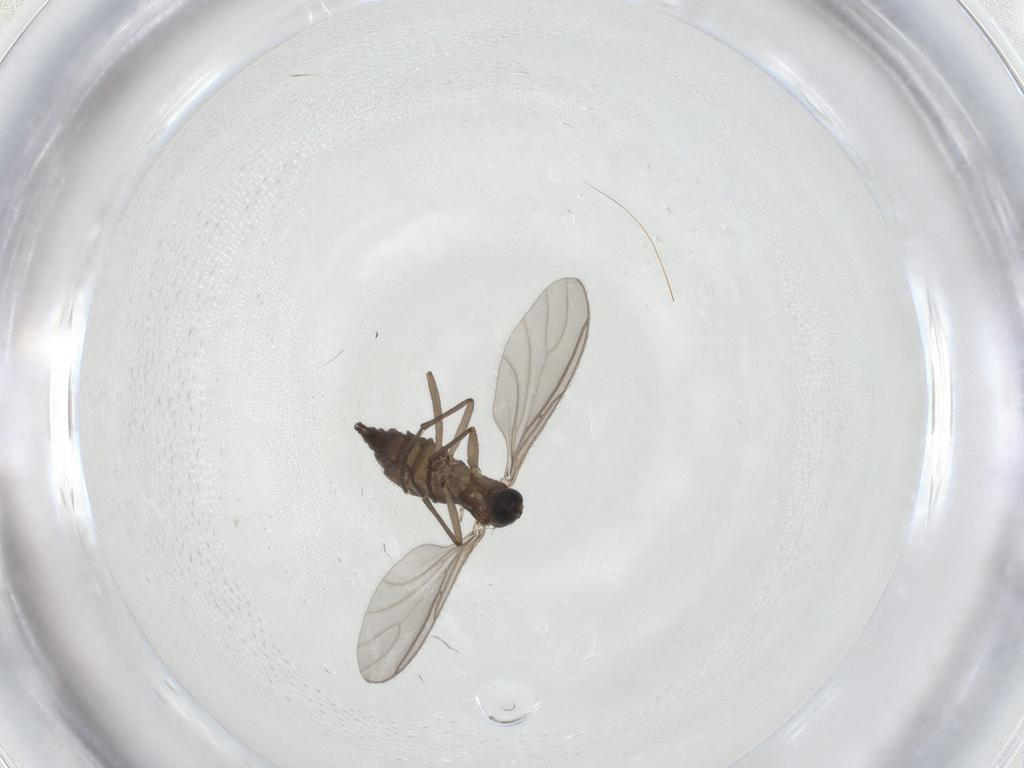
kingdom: Animalia
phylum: Arthropoda
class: Insecta
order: Diptera
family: Sciaridae
